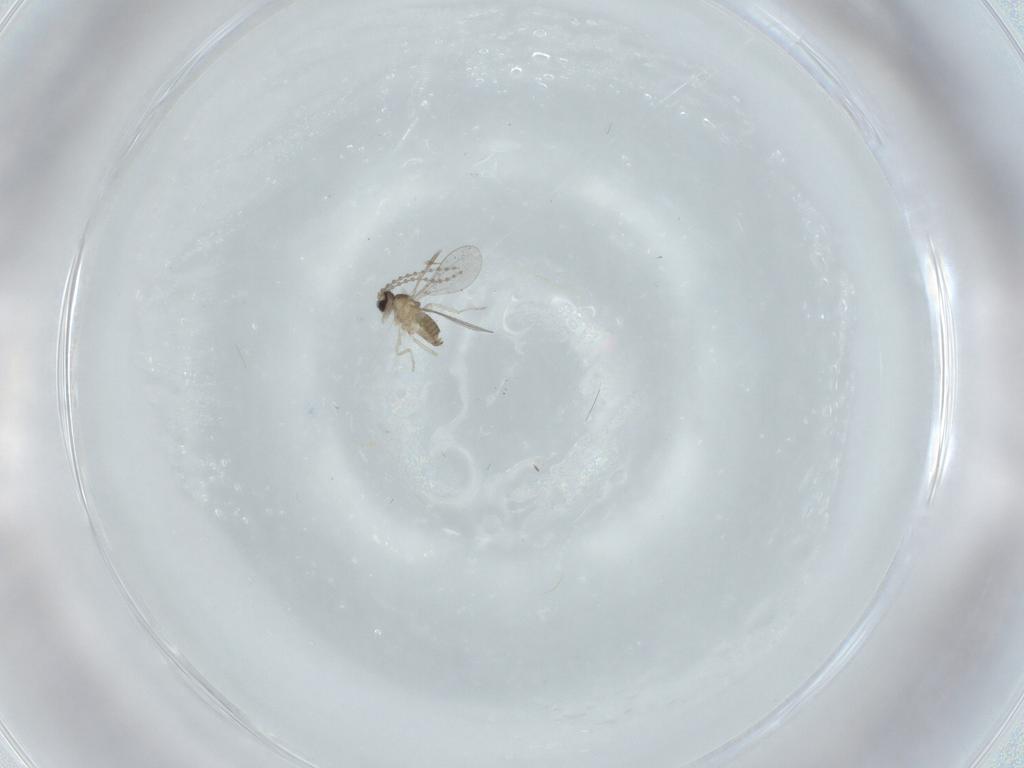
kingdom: Animalia
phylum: Arthropoda
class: Insecta
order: Diptera
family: Cecidomyiidae
